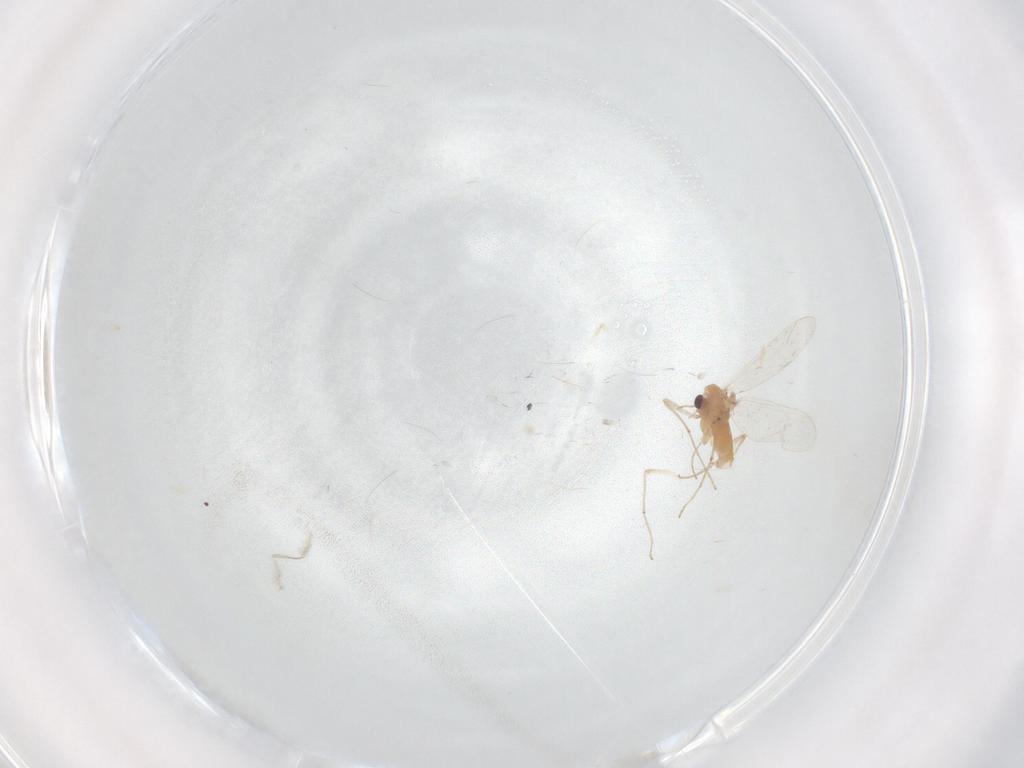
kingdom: Animalia
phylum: Arthropoda
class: Insecta
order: Diptera
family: Chironomidae
